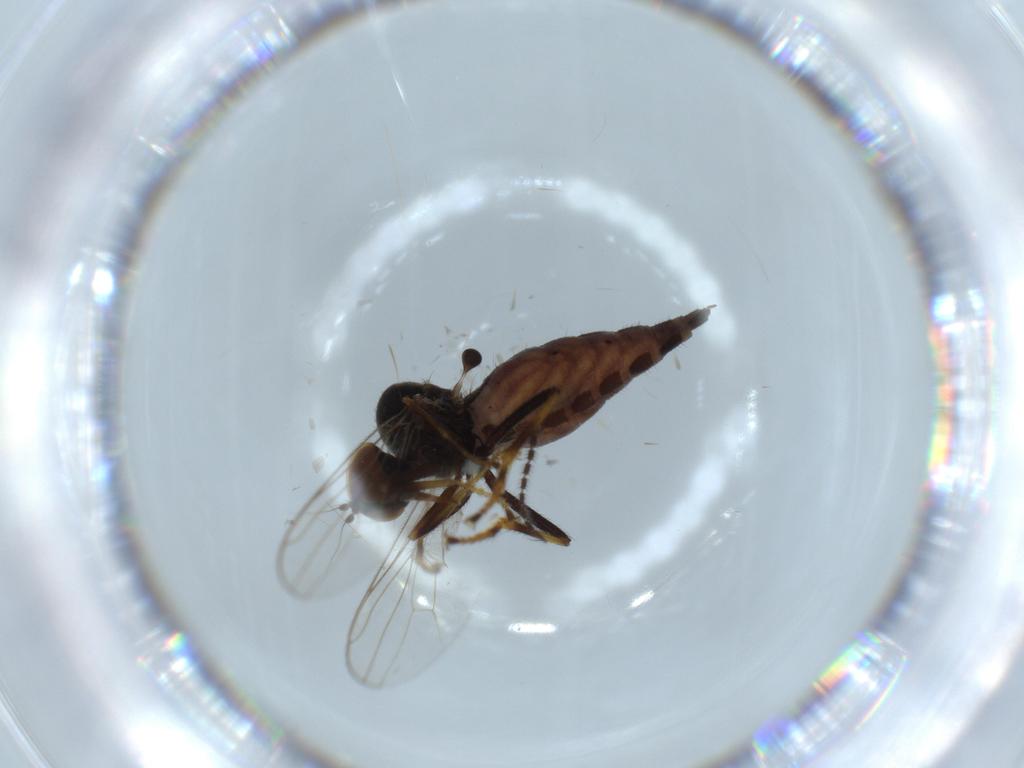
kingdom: Animalia
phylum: Arthropoda
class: Insecta
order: Diptera
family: Hybotidae
